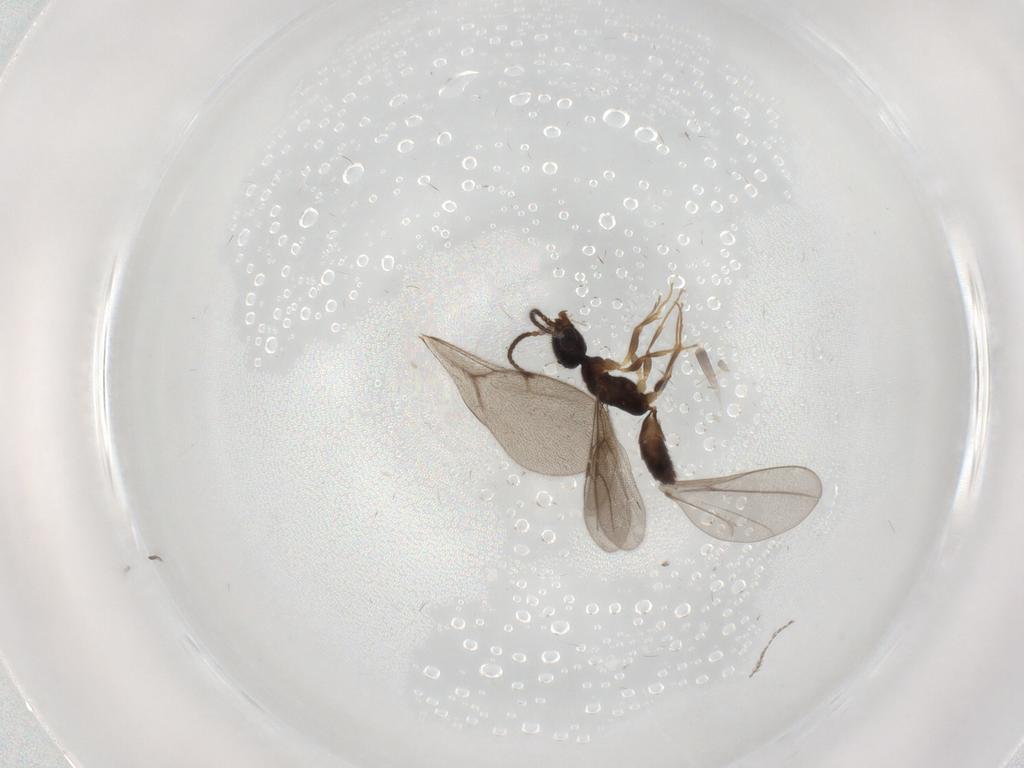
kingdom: Animalia
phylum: Arthropoda
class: Insecta
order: Hymenoptera
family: Bethylidae
